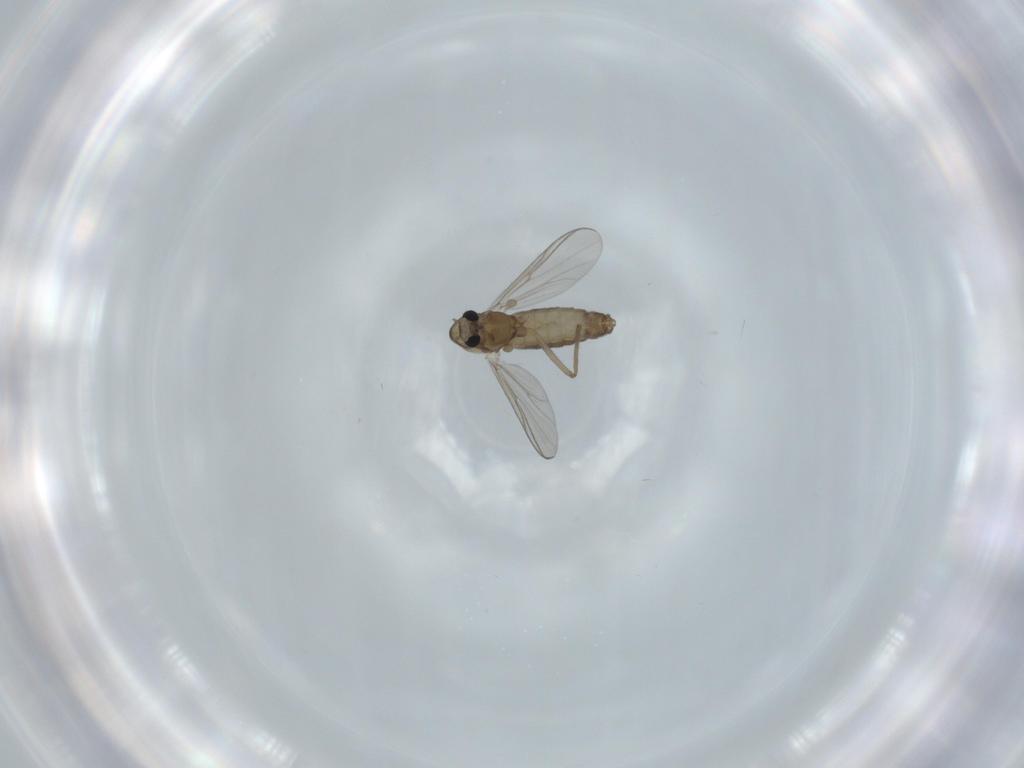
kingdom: Animalia
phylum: Arthropoda
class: Insecta
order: Diptera
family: Chironomidae
